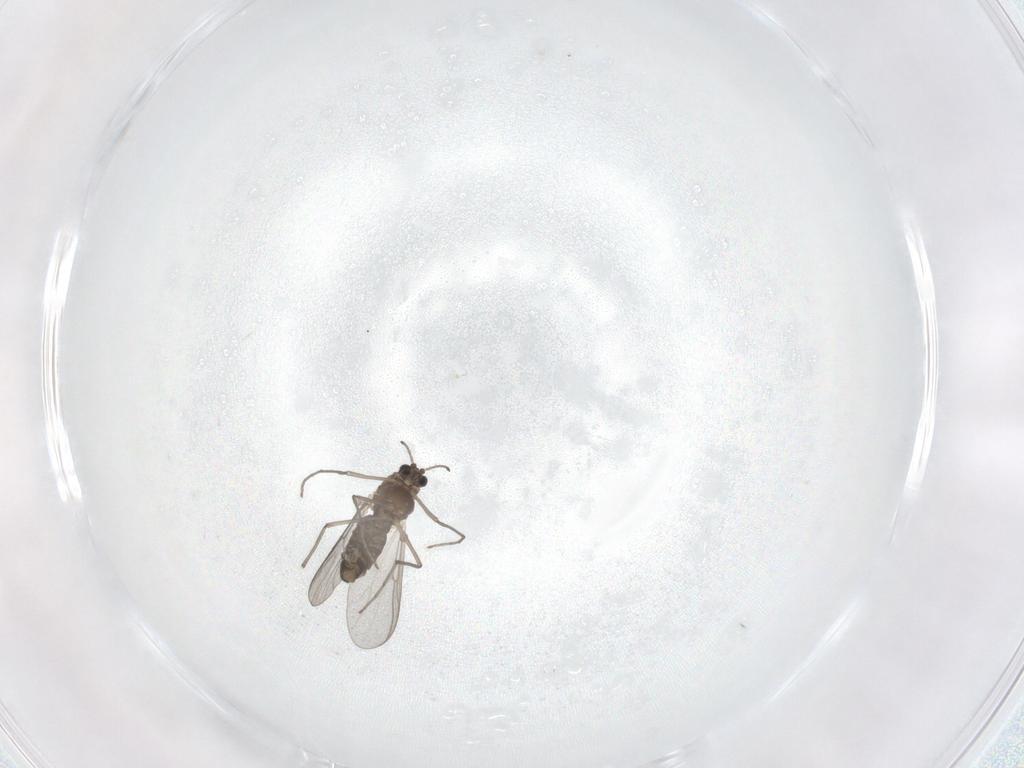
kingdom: Animalia
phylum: Arthropoda
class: Insecta
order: Diptera
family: Chironomidae
